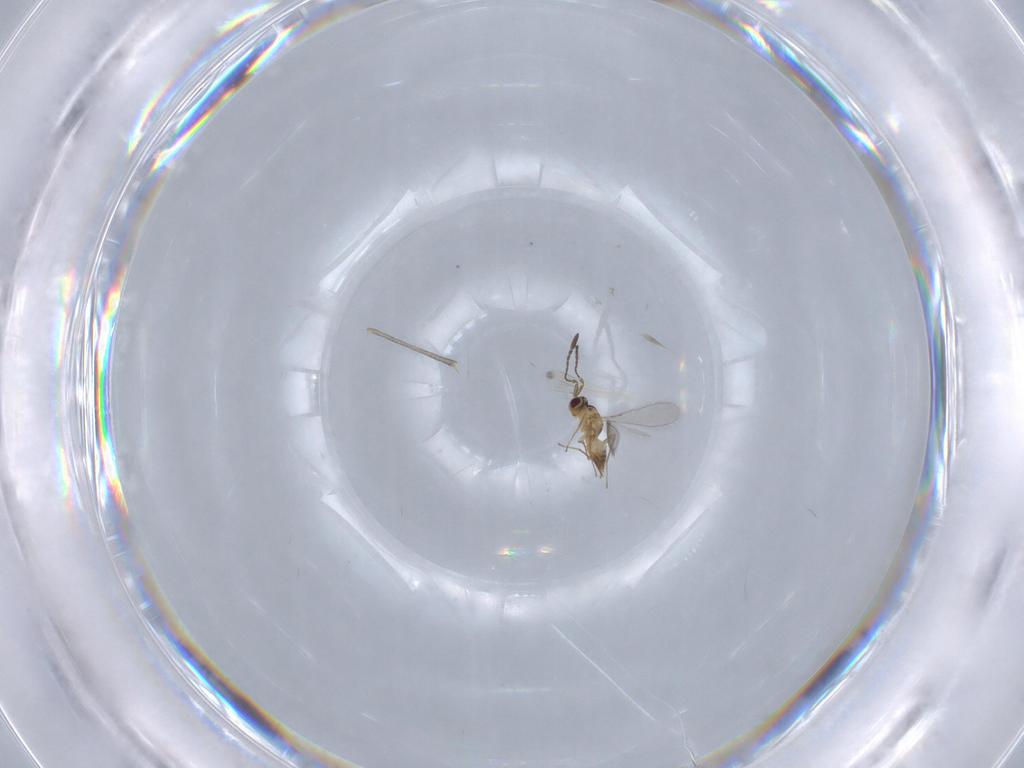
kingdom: Animalia
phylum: Arthropoda
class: Insecta
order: Hymenoptera
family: Mymaridae
